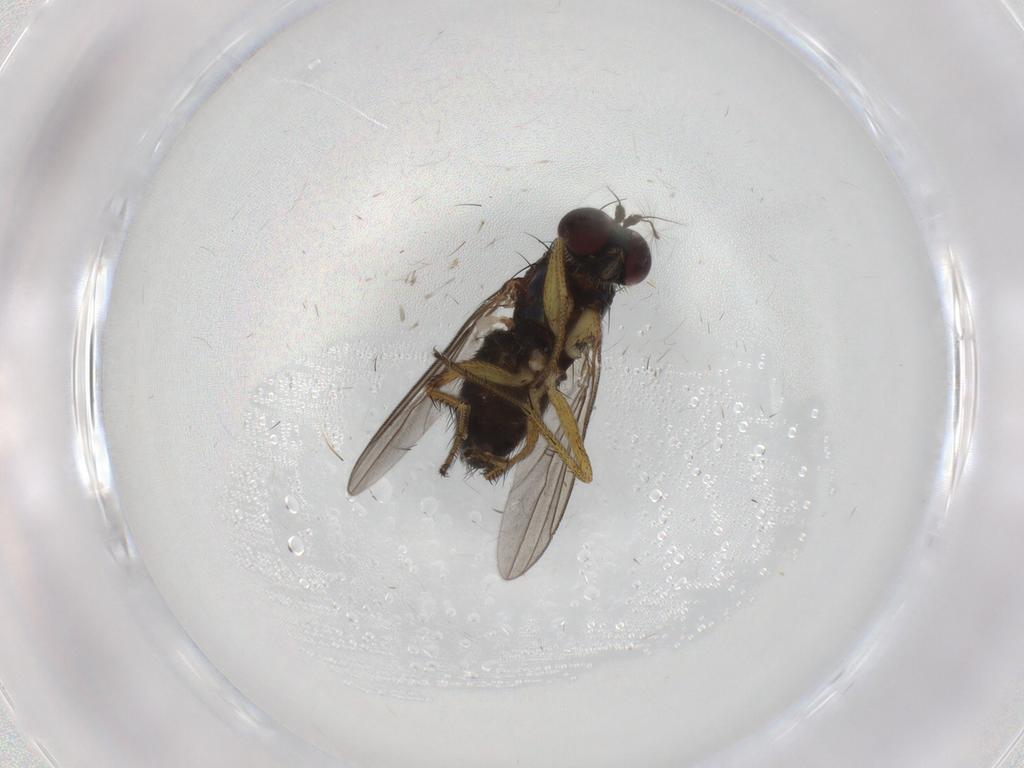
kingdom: Animalia
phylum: Arthropoda
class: Insecta
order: Diptera
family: Dolichopodidae
